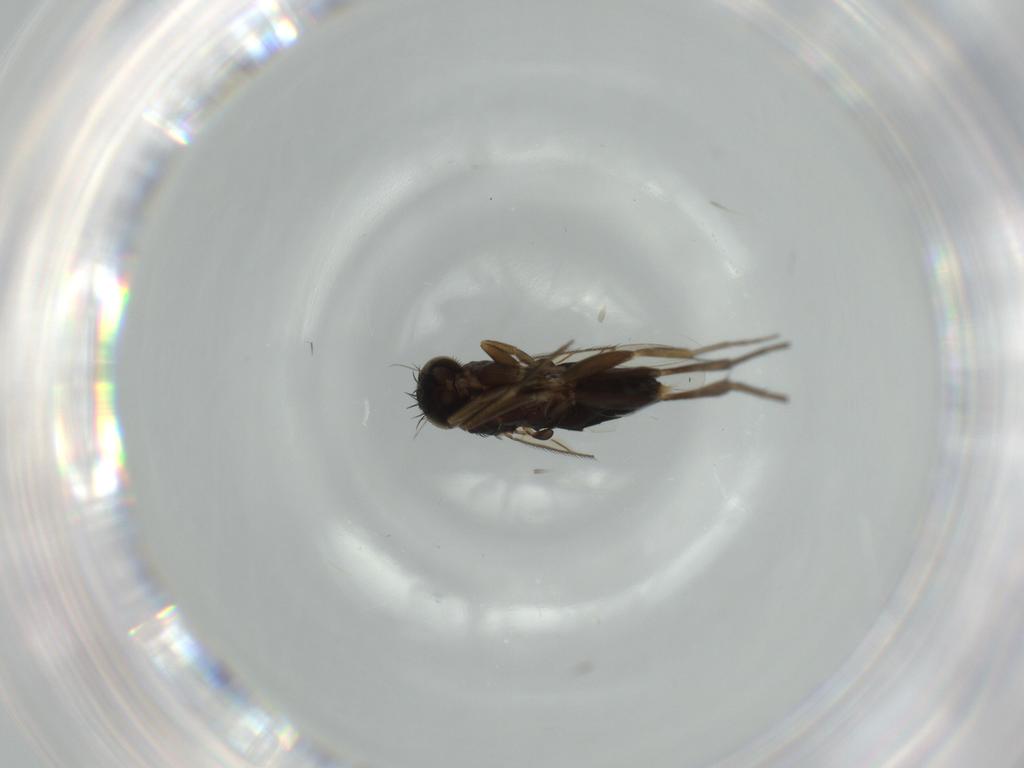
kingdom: Animalia
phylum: Arthropoda
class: Insecta
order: Diptera
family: Phoridae
